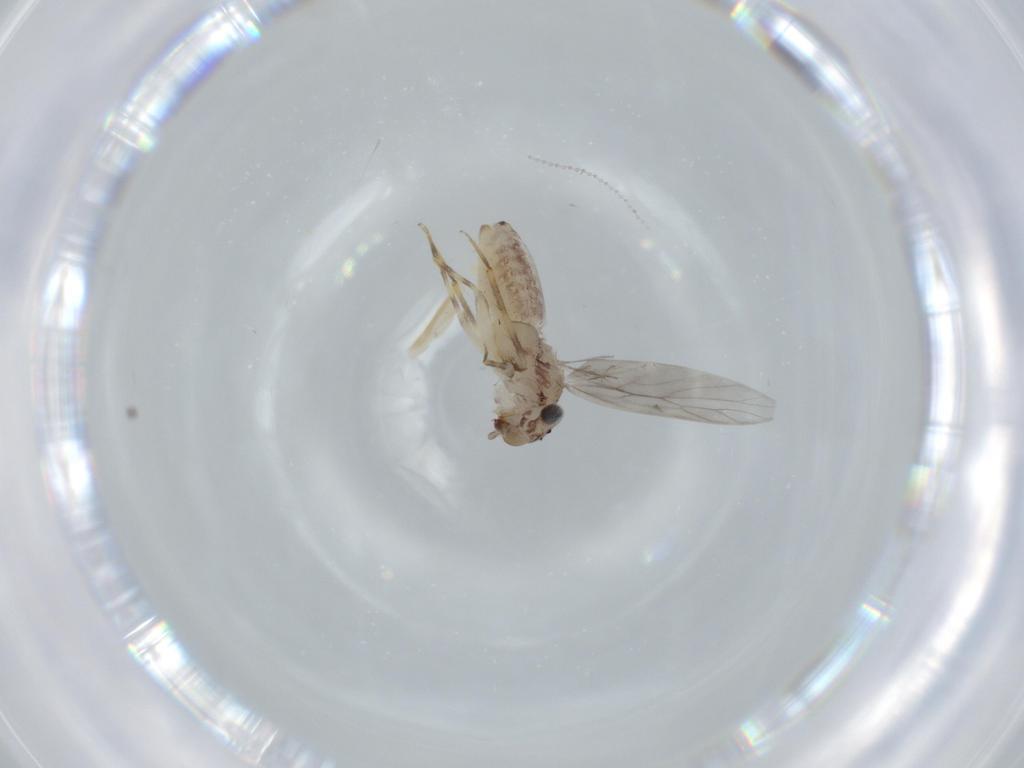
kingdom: Animalia
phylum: Arthropoda
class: Insecta
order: Psocodea
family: Lepidopsocidae
